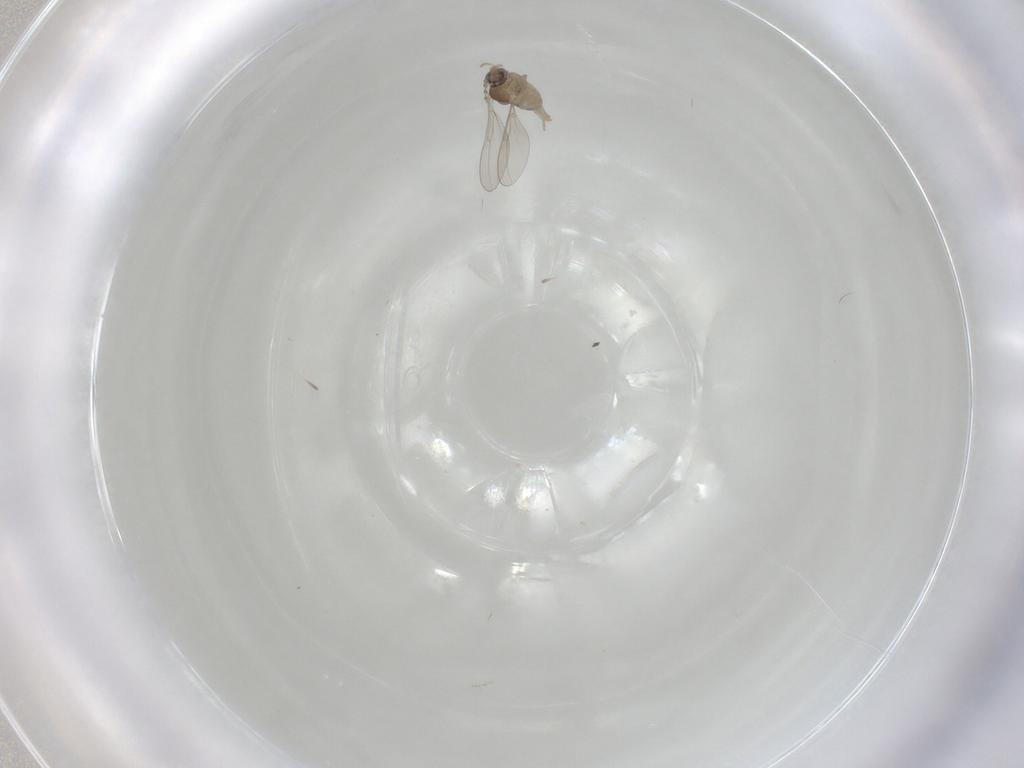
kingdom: Animalia
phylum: Arthropoda
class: Insecta
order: Diptera
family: Cecidomyiidae
